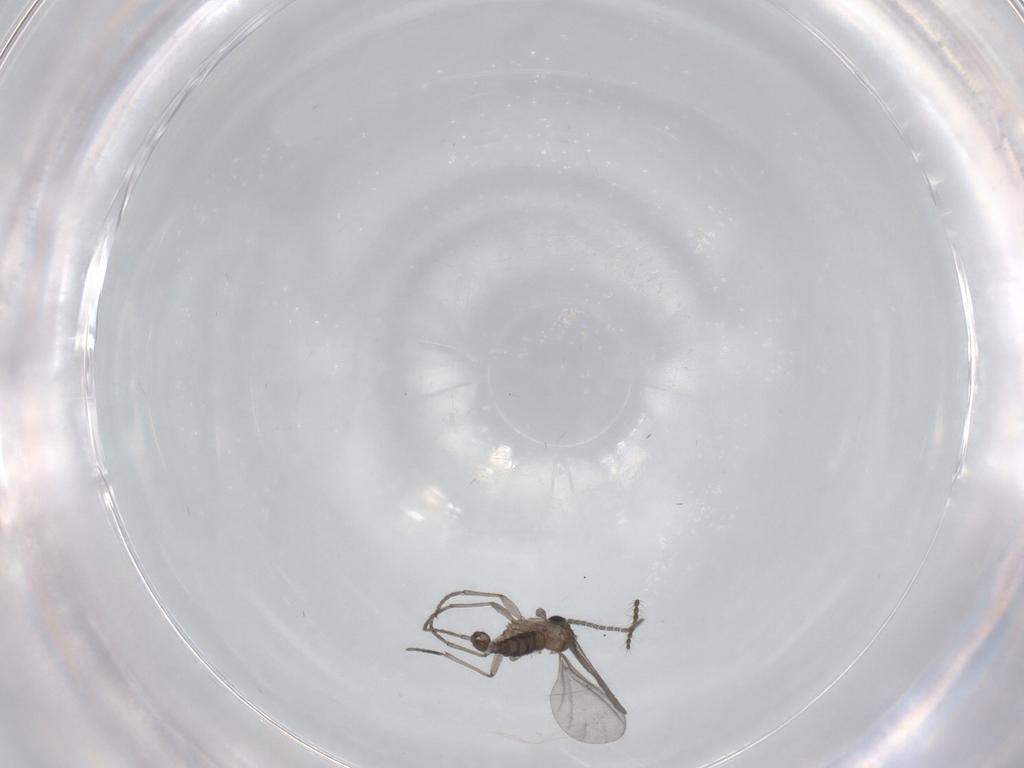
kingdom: Animalia
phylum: Arthropoda
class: Insecta
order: Diptera
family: Sciaridae
